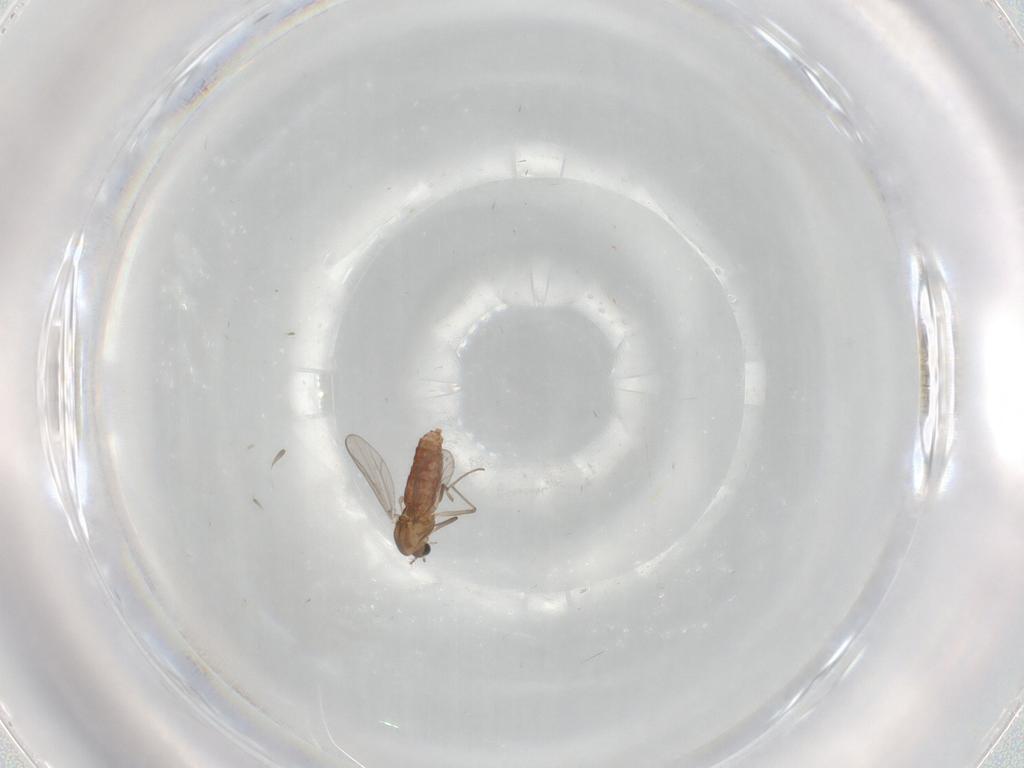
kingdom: Animalia
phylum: Arthropoda
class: Insecta
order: Diptera
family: Chironomidae
